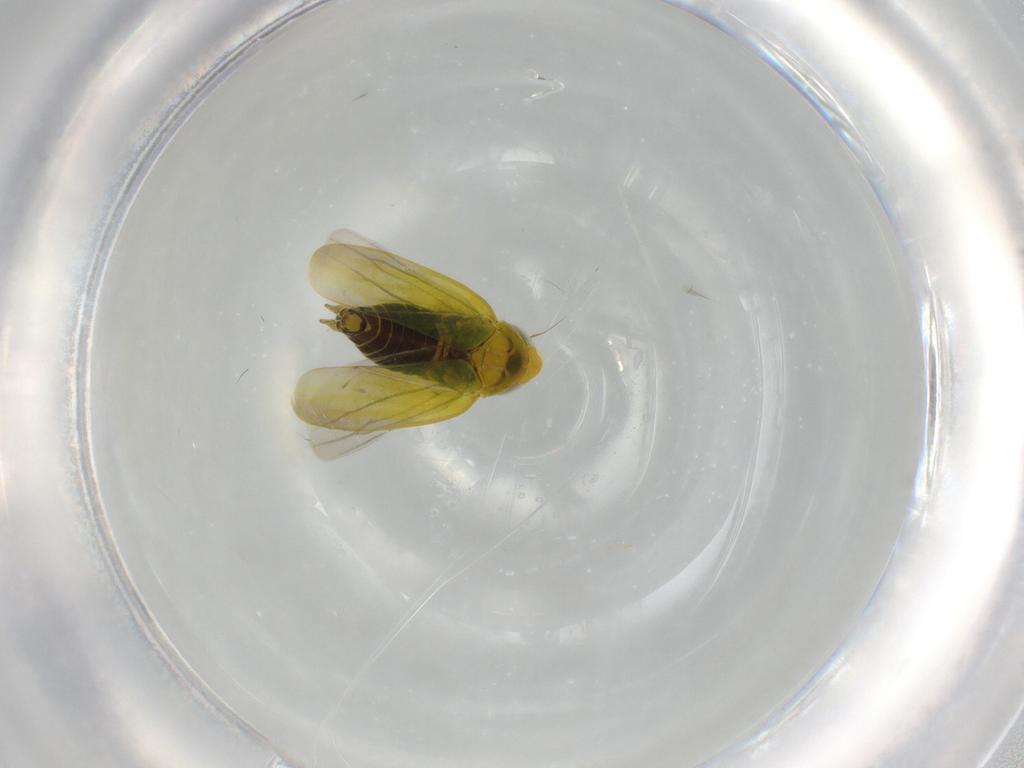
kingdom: Animalia
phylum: Arthropoda
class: Insecta
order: Hemiptera
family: Cicadellidae
